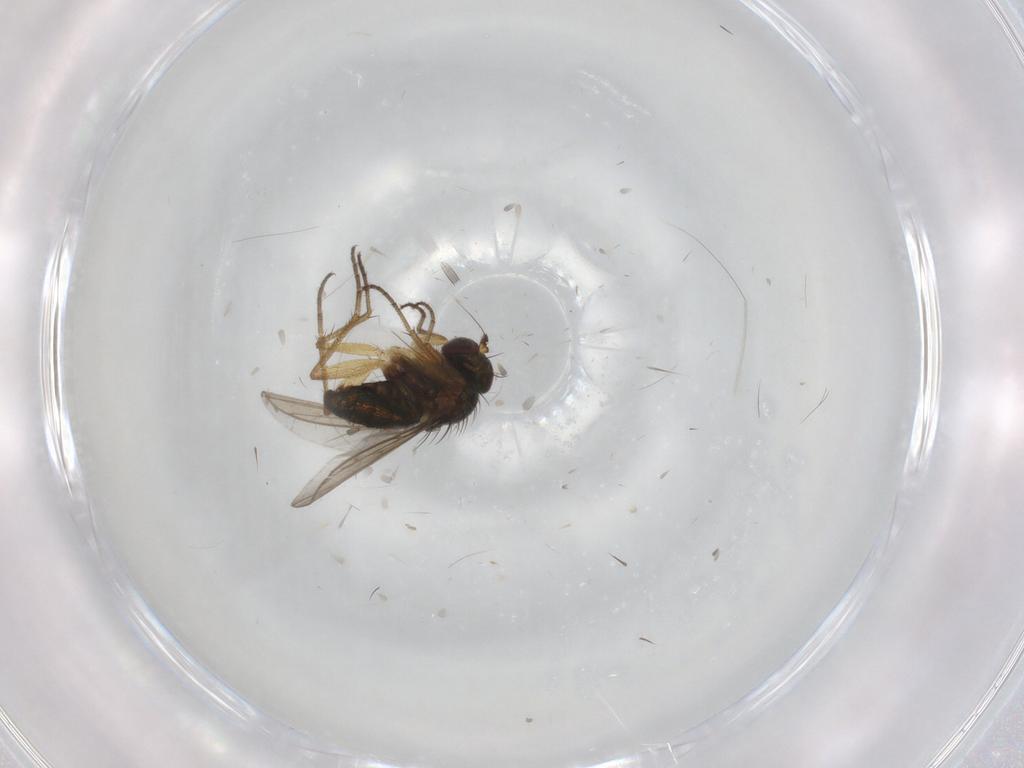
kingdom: Animalia
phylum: Arthropoda
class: Insecta
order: Diptera
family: Dolichopodidae
